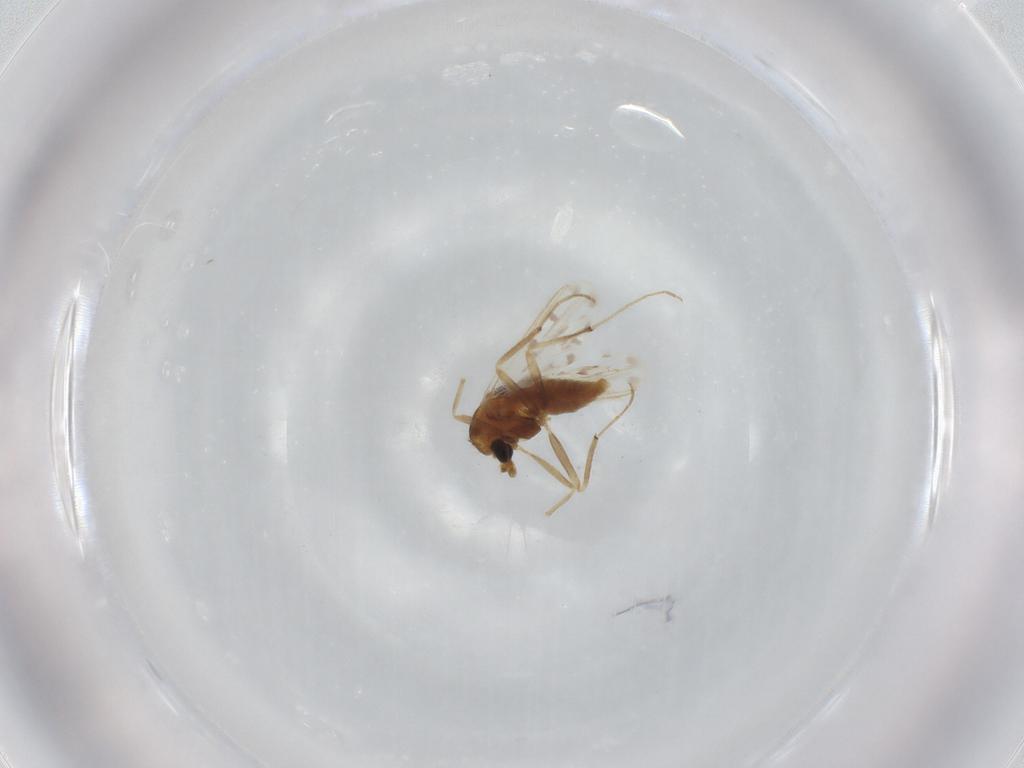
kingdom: Animalia
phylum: Arthropoda
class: Insecta
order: Diptera
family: Chironomidae
